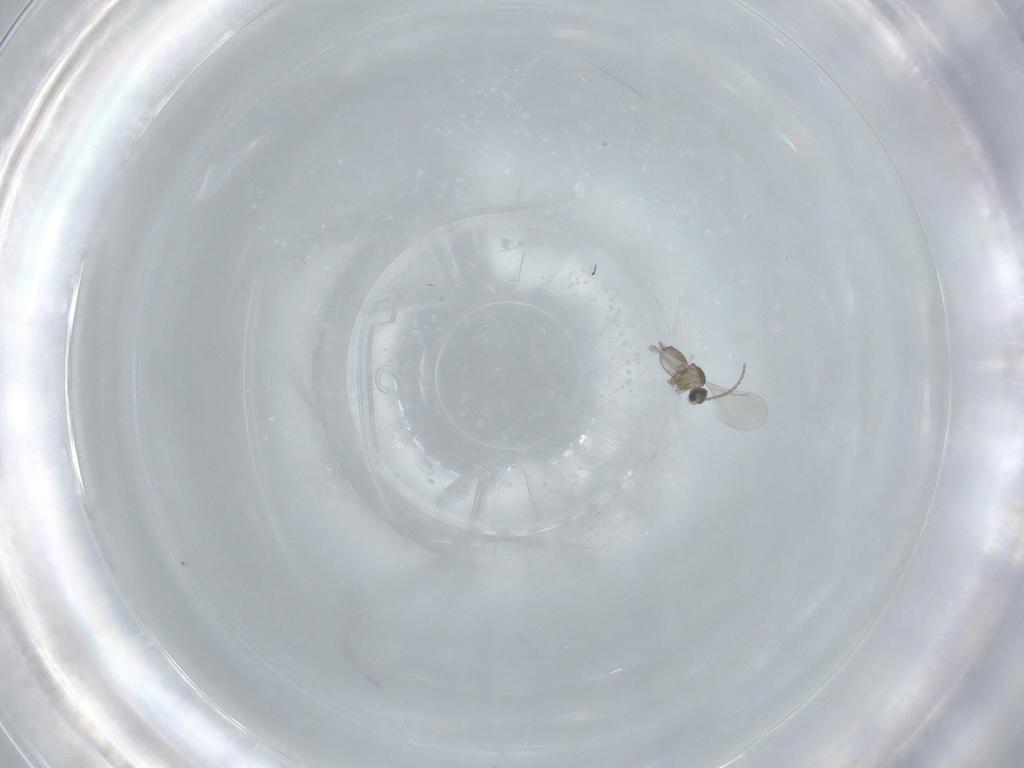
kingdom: Animalia
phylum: Arthropoda
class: Insecta
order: Diptera
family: Cecidomyiidae
